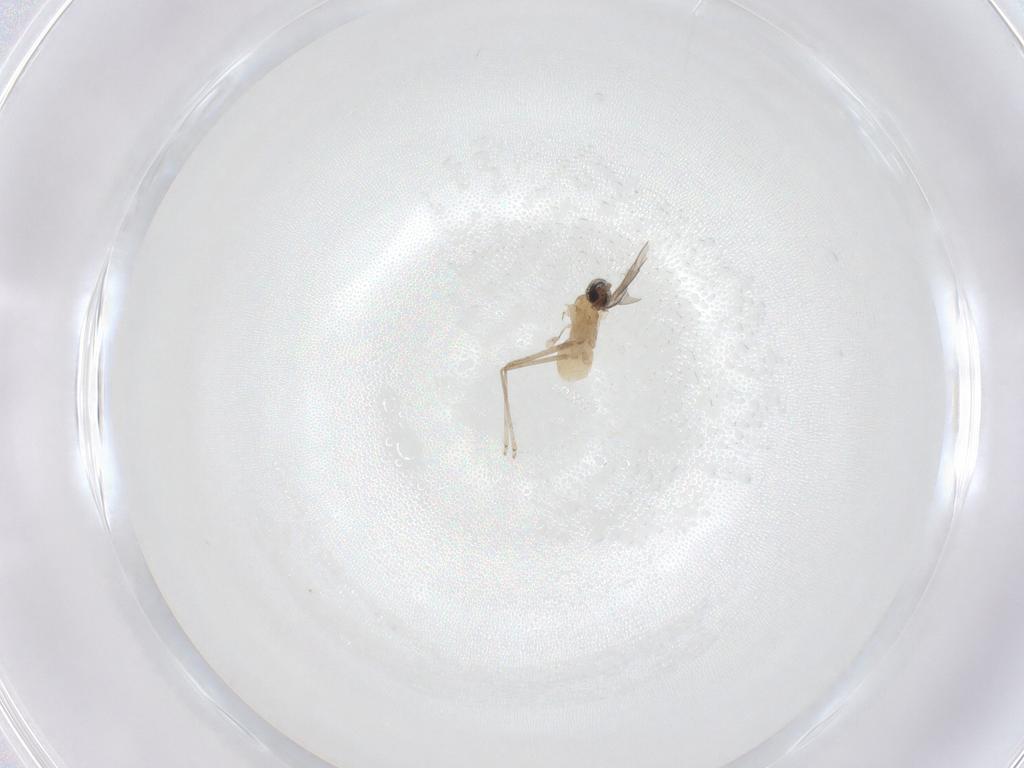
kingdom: Animalia
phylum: Arthropoda
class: Insecta
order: Diptera
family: Cecidomyiidae
